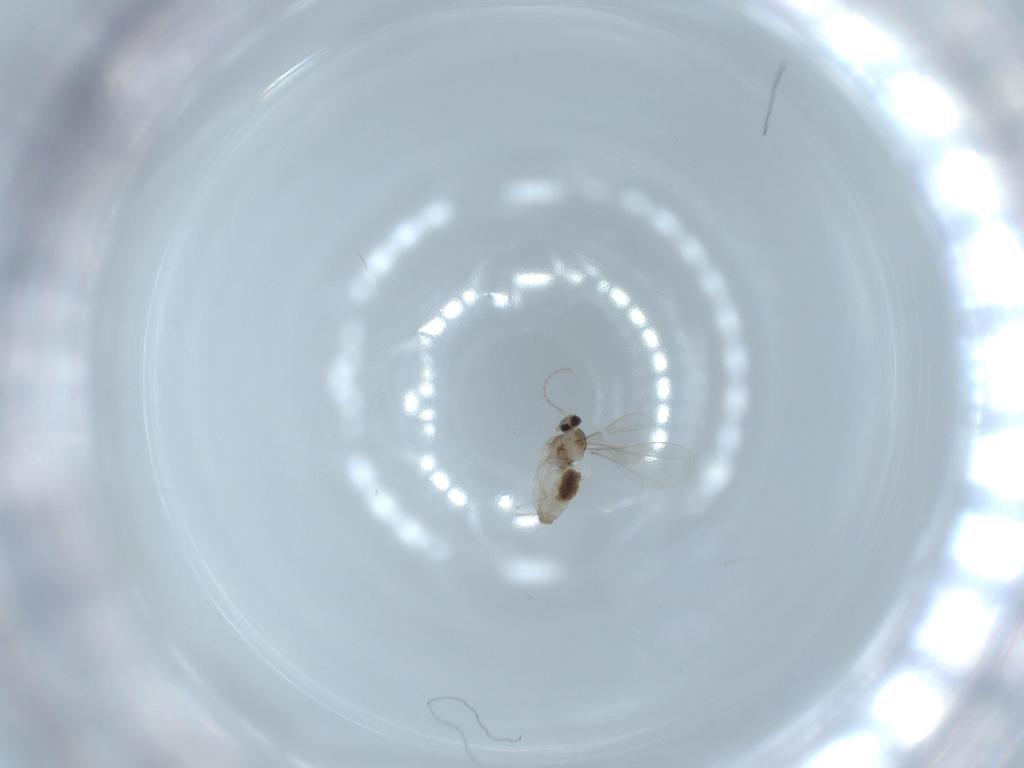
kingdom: Animalia
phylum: Arthropoda
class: Insecta
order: Diptera
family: Cecidomyiidae
